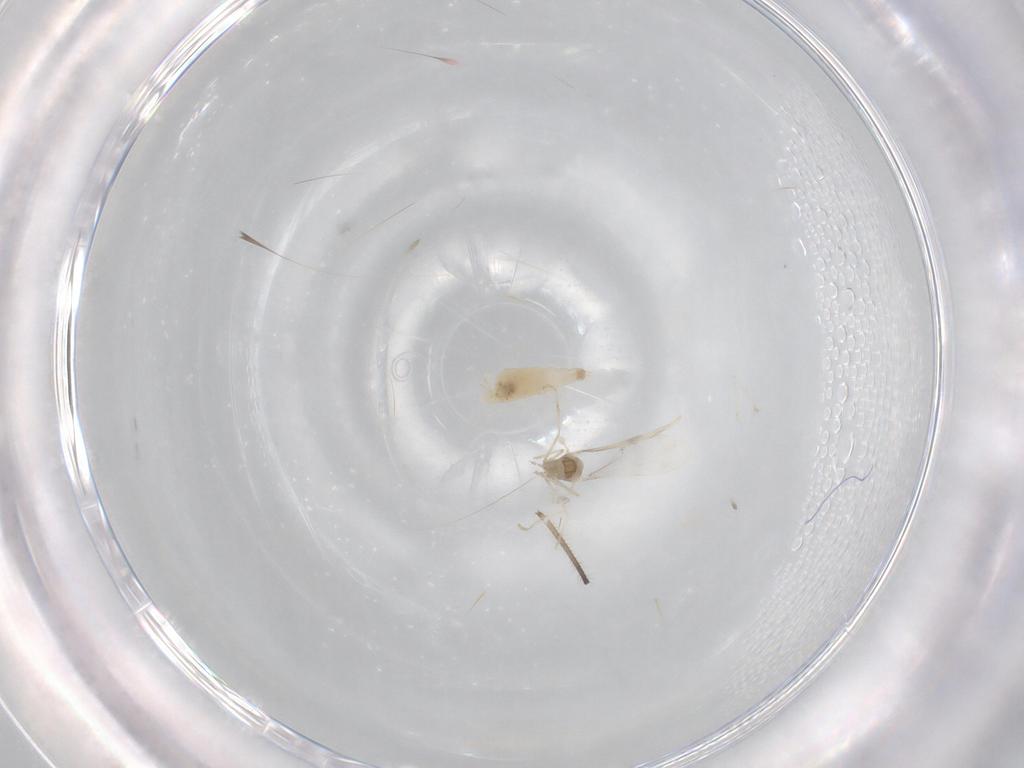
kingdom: Animalia
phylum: Arthropoda
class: Insecta
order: Diptera
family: Cecidomyiidae
